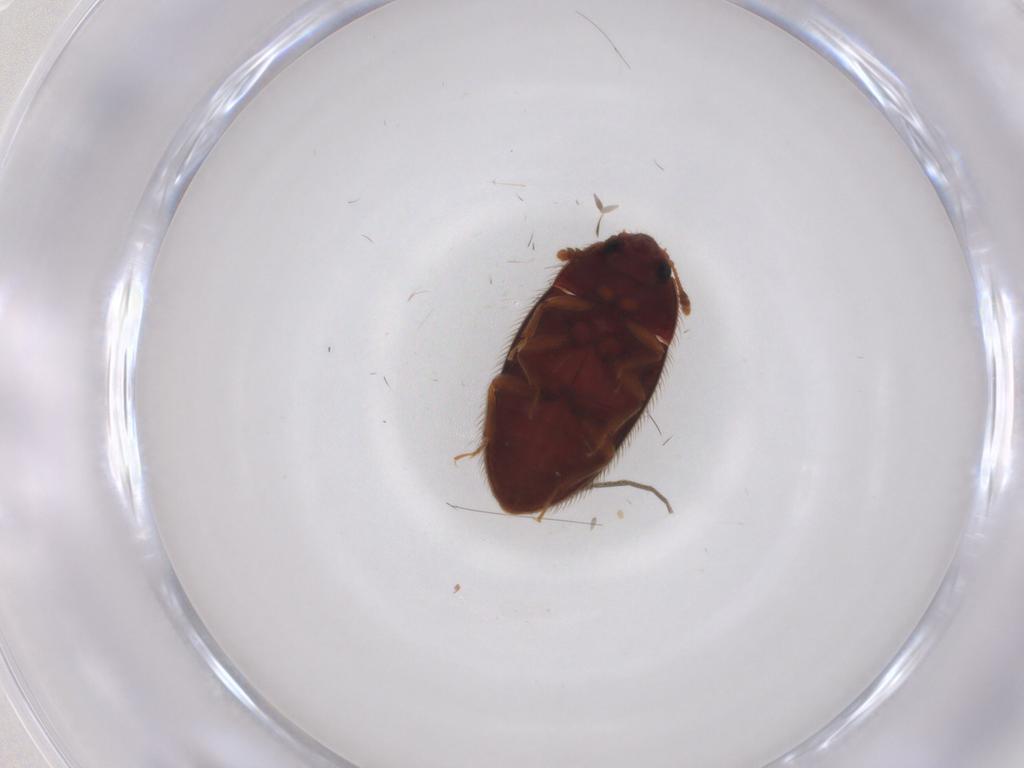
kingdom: Animalia
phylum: Arthropoda
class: Insecta
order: Coleoptera
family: Biphyllidae
